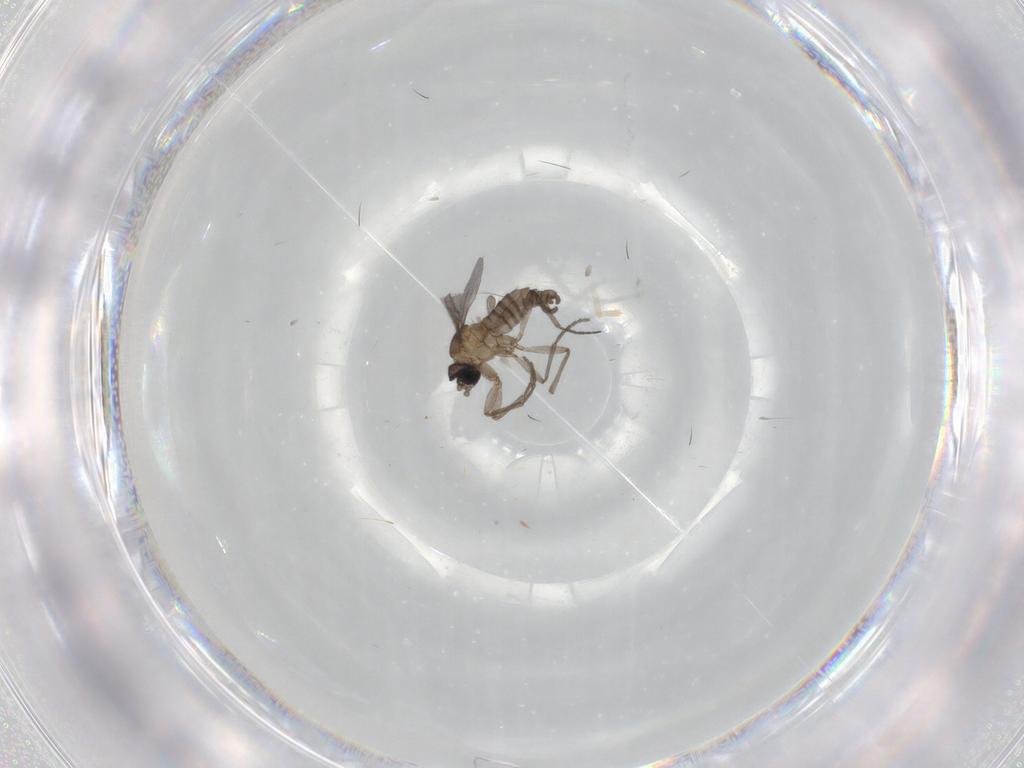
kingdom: Animalia
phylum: Arthropoda
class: Insecta
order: Diptera
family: Sciaridae
